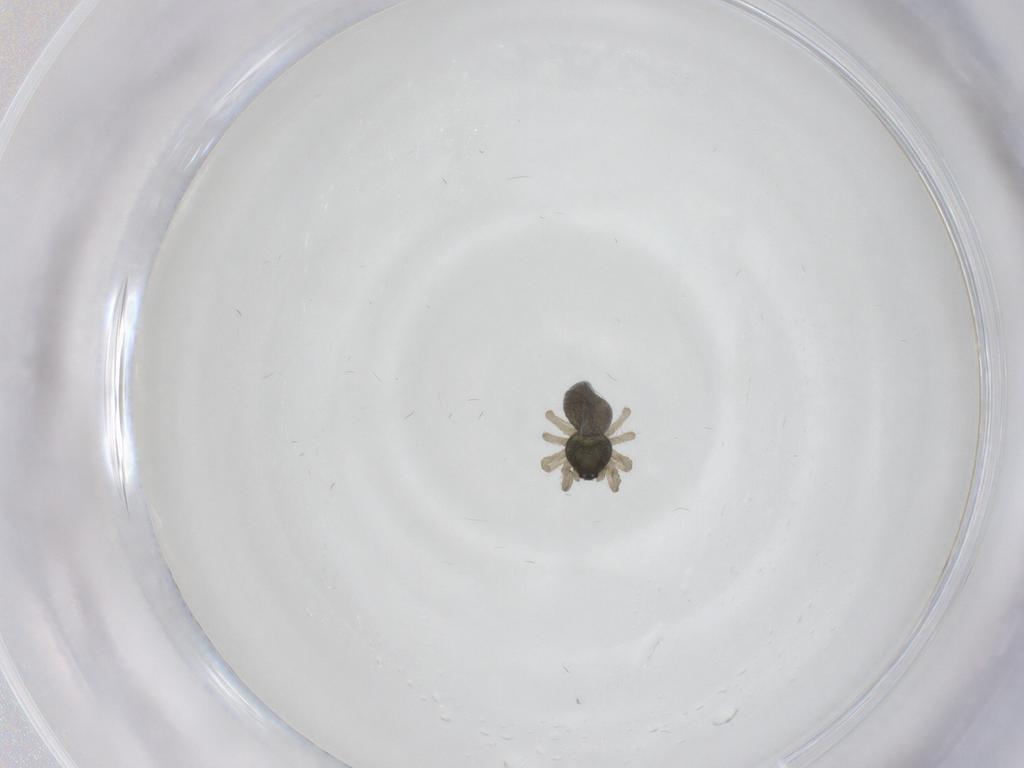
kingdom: Animalia
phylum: Arthropoda
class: Arachnida
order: Araneae
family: Theridiidae
